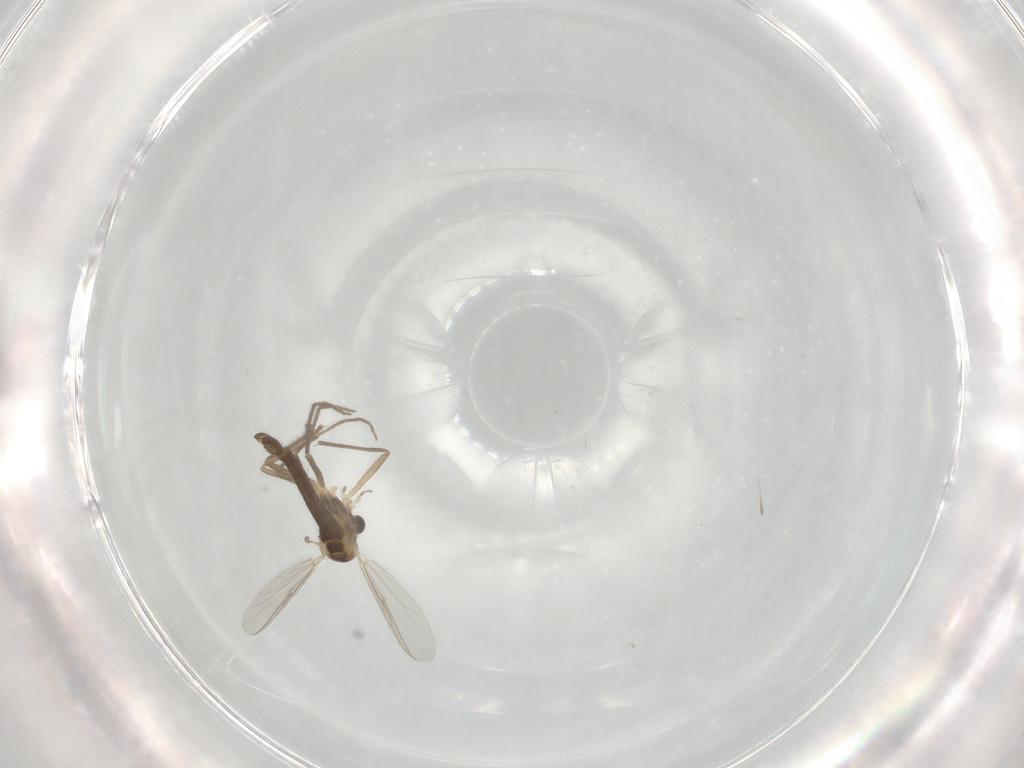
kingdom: Animalia
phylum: Arthropoda
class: Insecta
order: Diptera
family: Chironomidae
